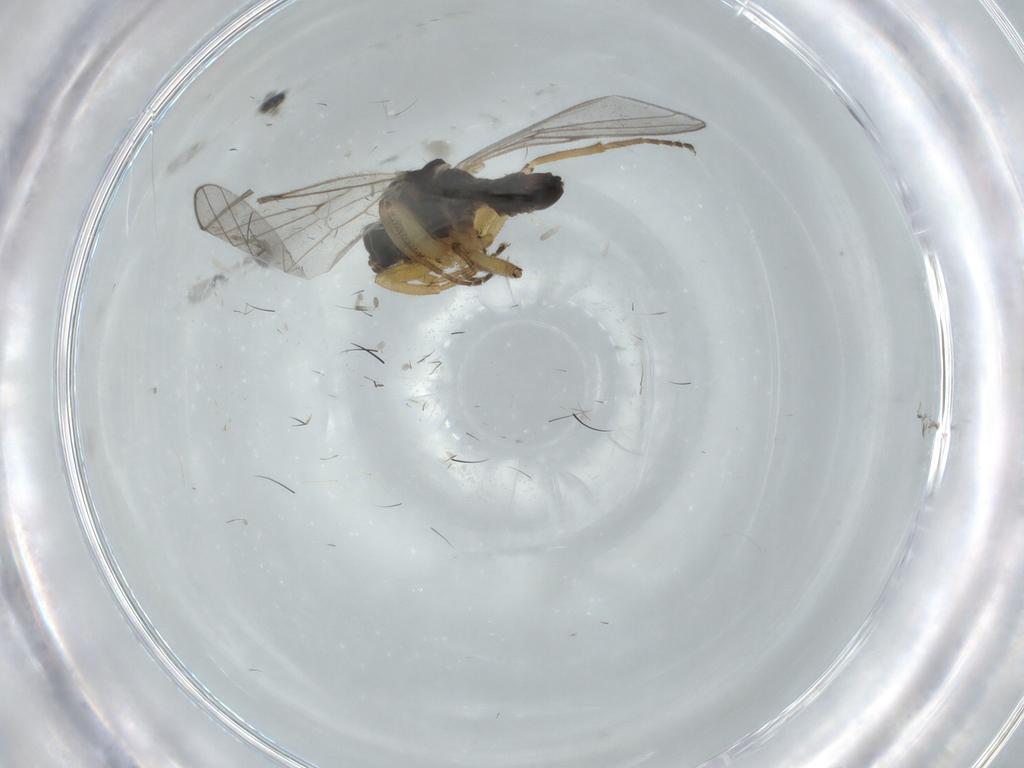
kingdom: Animalia
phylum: Arthropoda
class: Insecta
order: Diptera
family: Hybotidae
